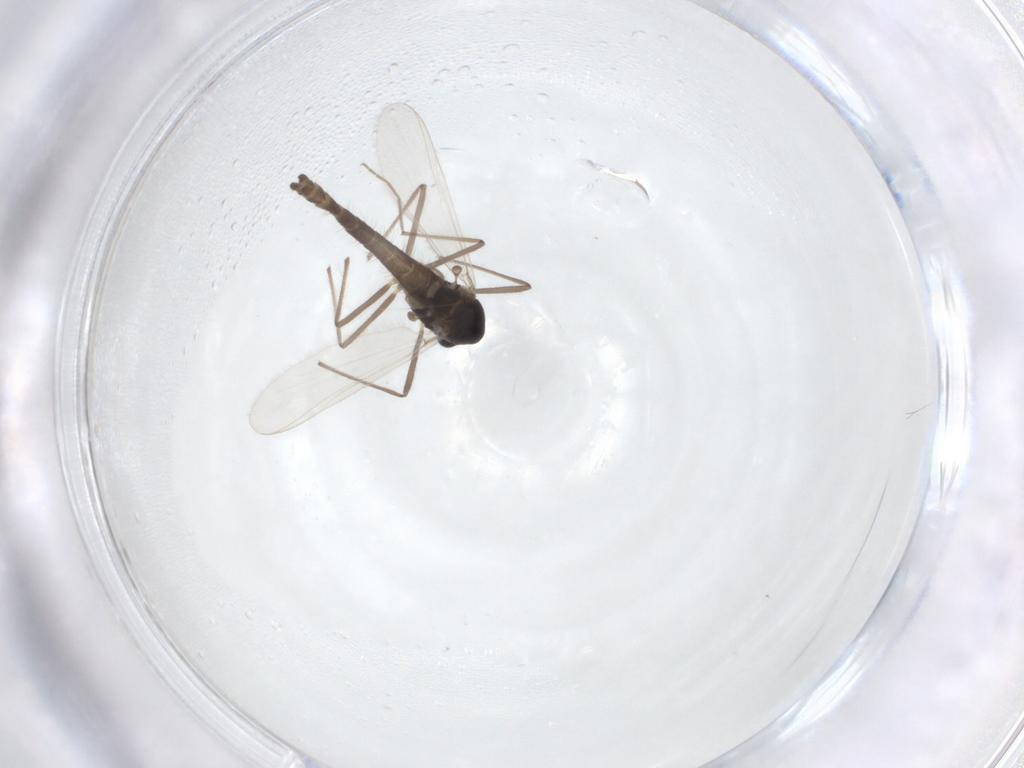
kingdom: Animalia
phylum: Arthropoda
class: Insecta
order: Diptera
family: Chironomidae
